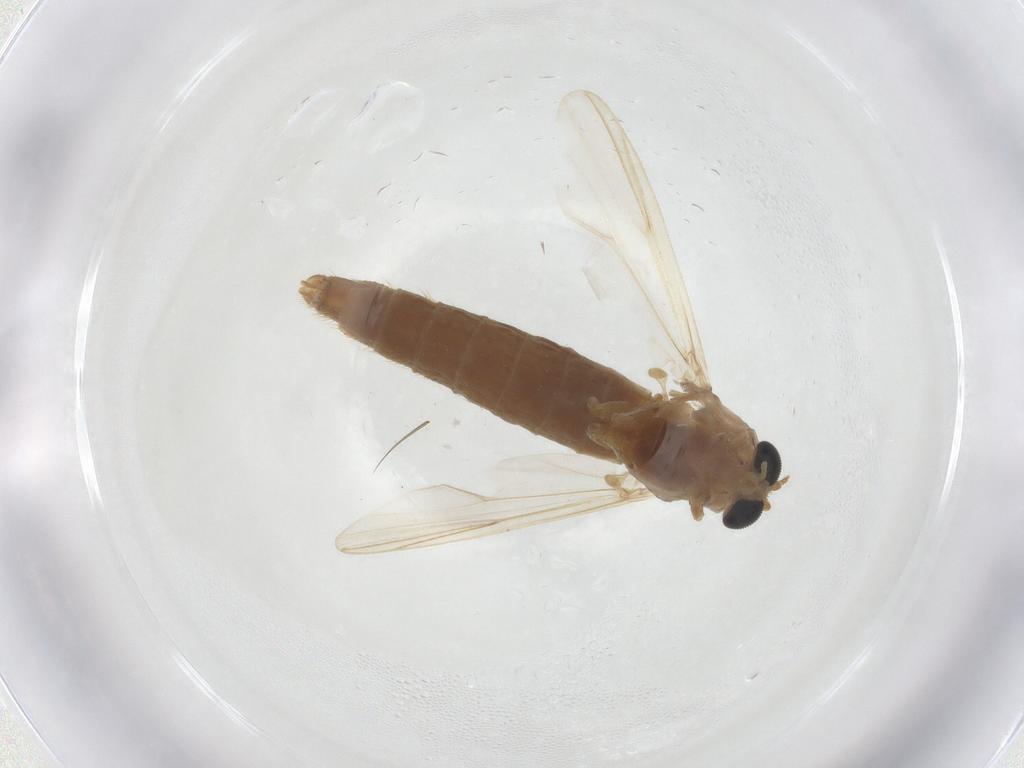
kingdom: Animalia
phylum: Arthropoda
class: Insecta
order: Diptera
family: Chironomidae
